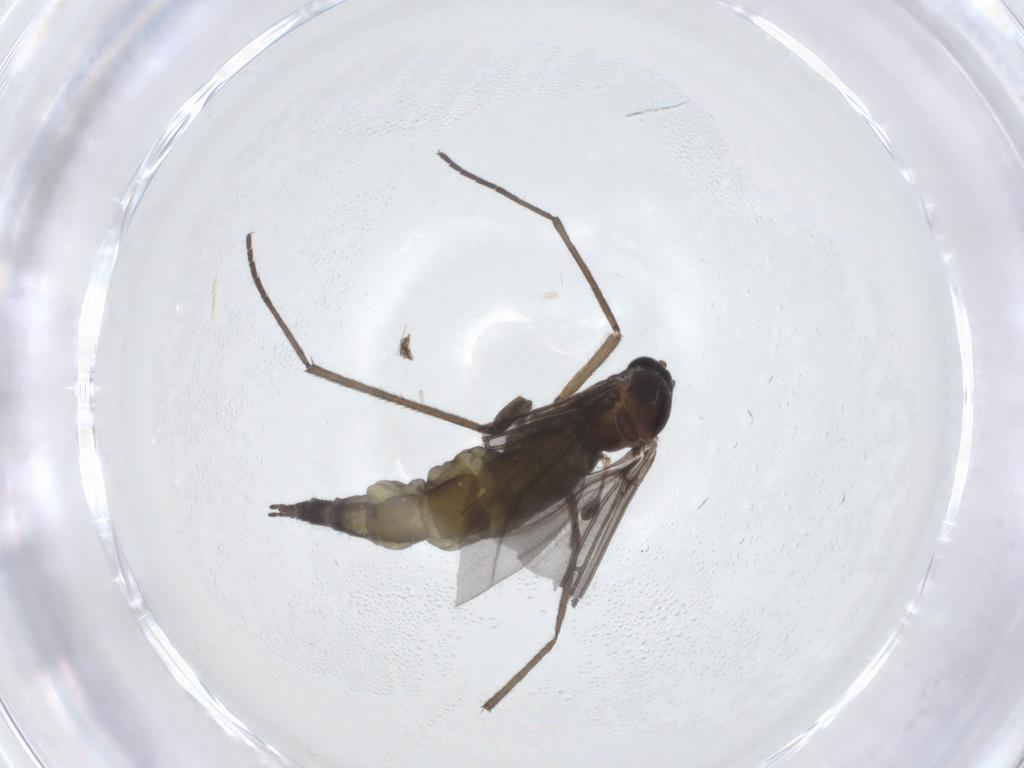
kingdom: Animalia
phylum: Arthropoda
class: Insecta
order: Diptera
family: Sciaridae
